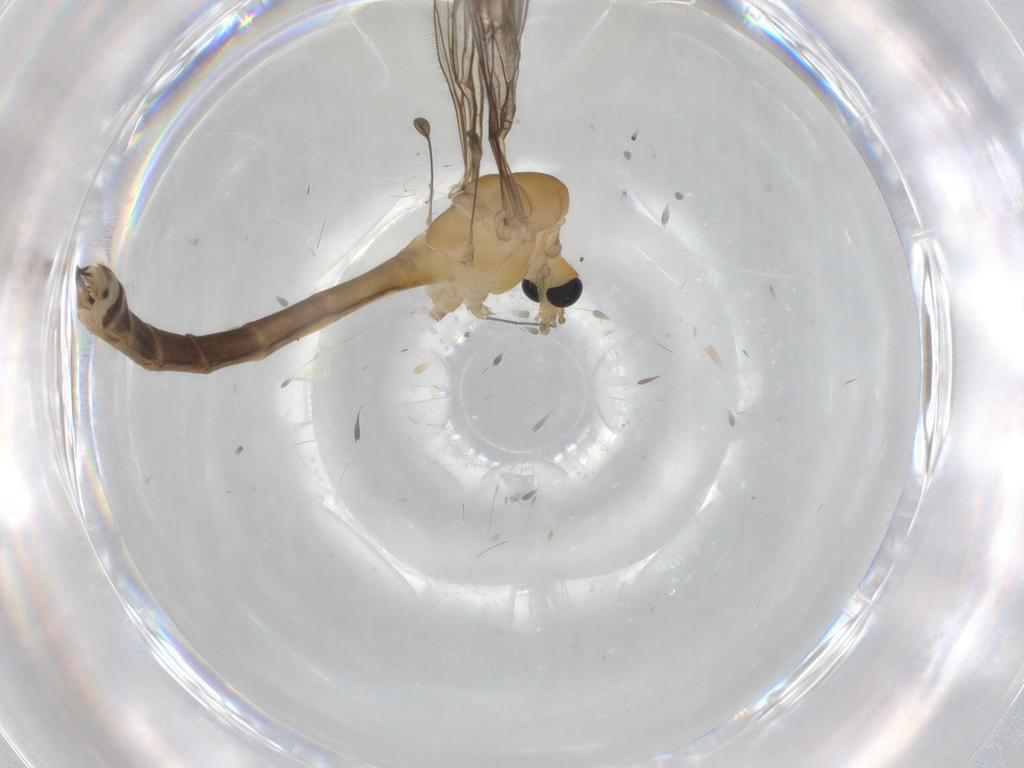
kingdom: Animalia
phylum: Arthropoda
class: Insecta
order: Diptera
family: Limoniidae
